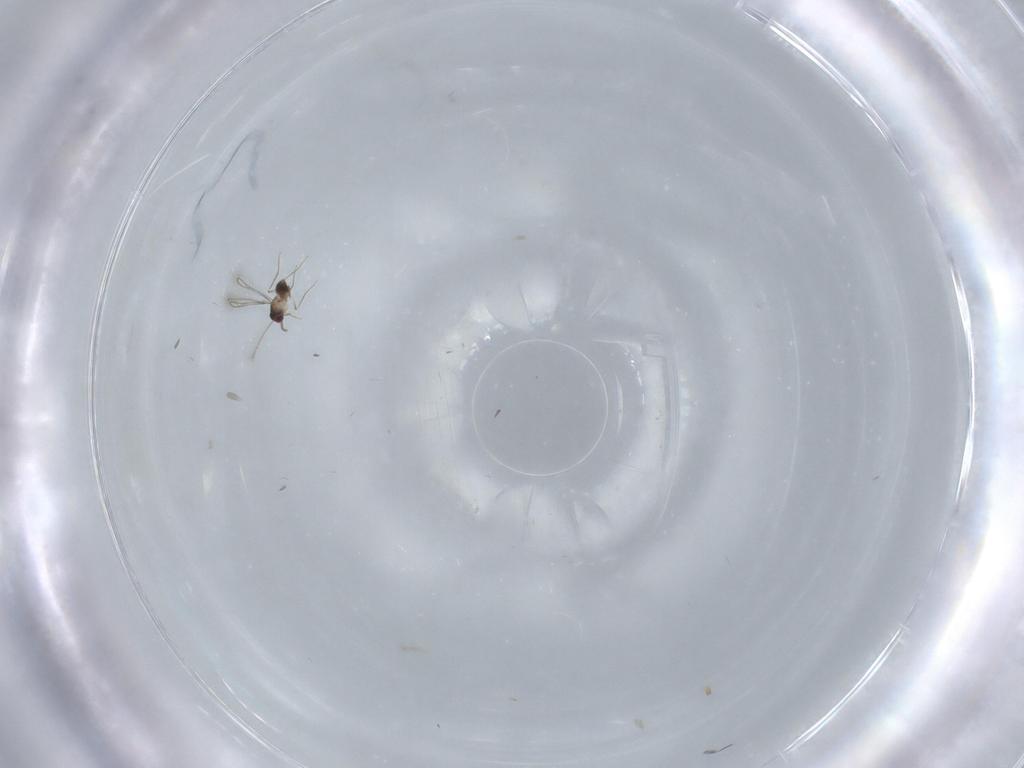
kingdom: Animalia
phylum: Arthropoda
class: Insecta
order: Hymenoptera
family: Mymaridae
